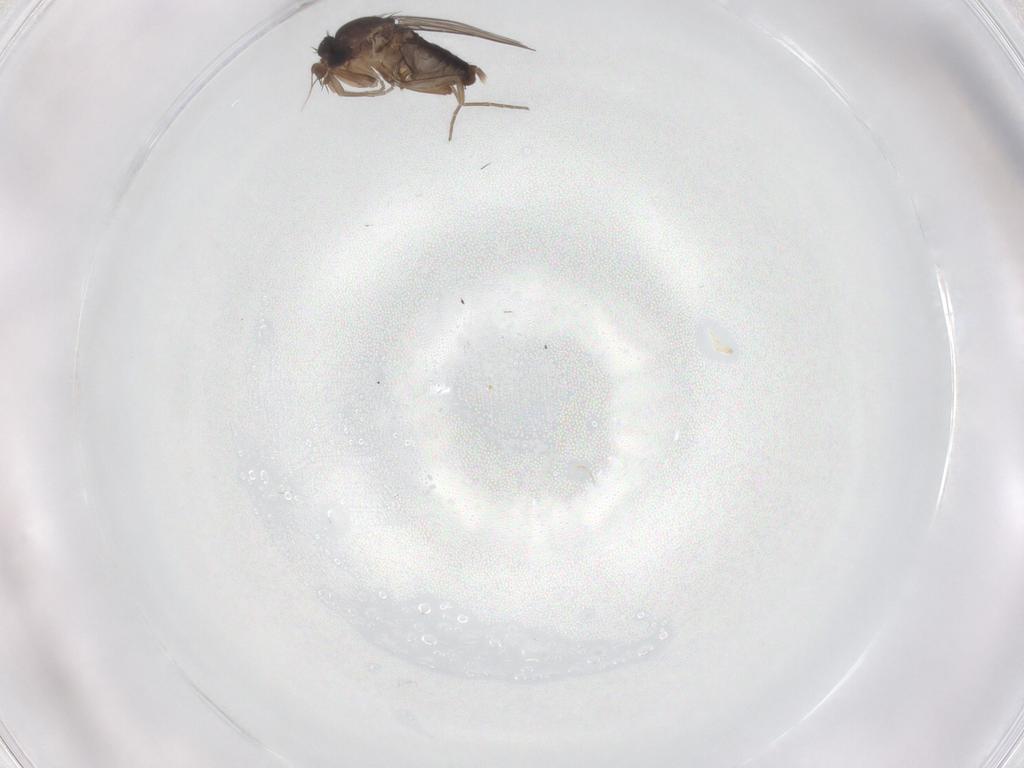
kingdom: Animalia
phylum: Arthropoda
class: Insecta
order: Diptera
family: Phoridae
